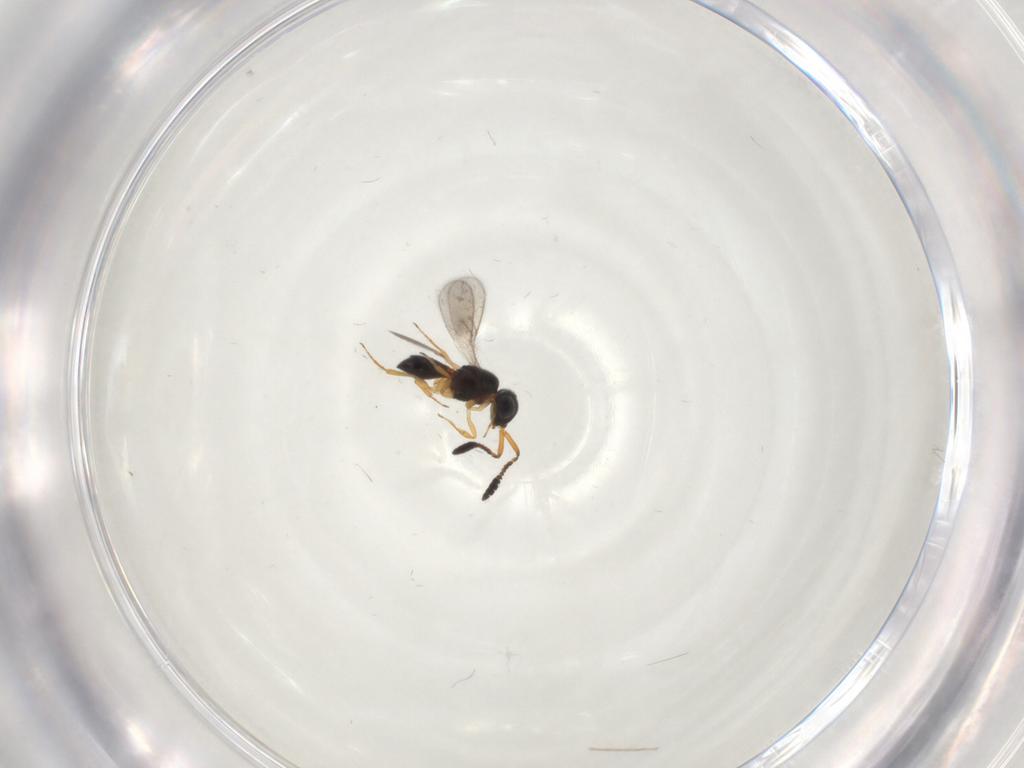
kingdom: Animalia
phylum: Arthropoda
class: Insecta
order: Hymenoptera
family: Scelionidae
